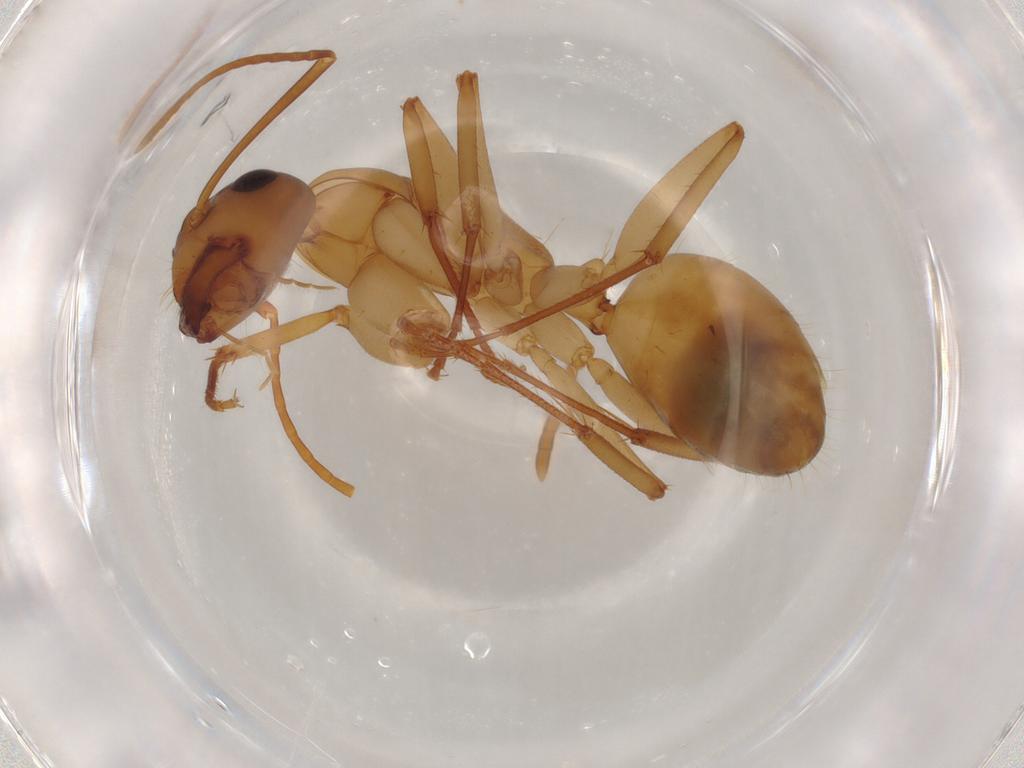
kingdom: Animalia
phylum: Arthropoda
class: Insecta
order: Hymenoptera
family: Formicidae
